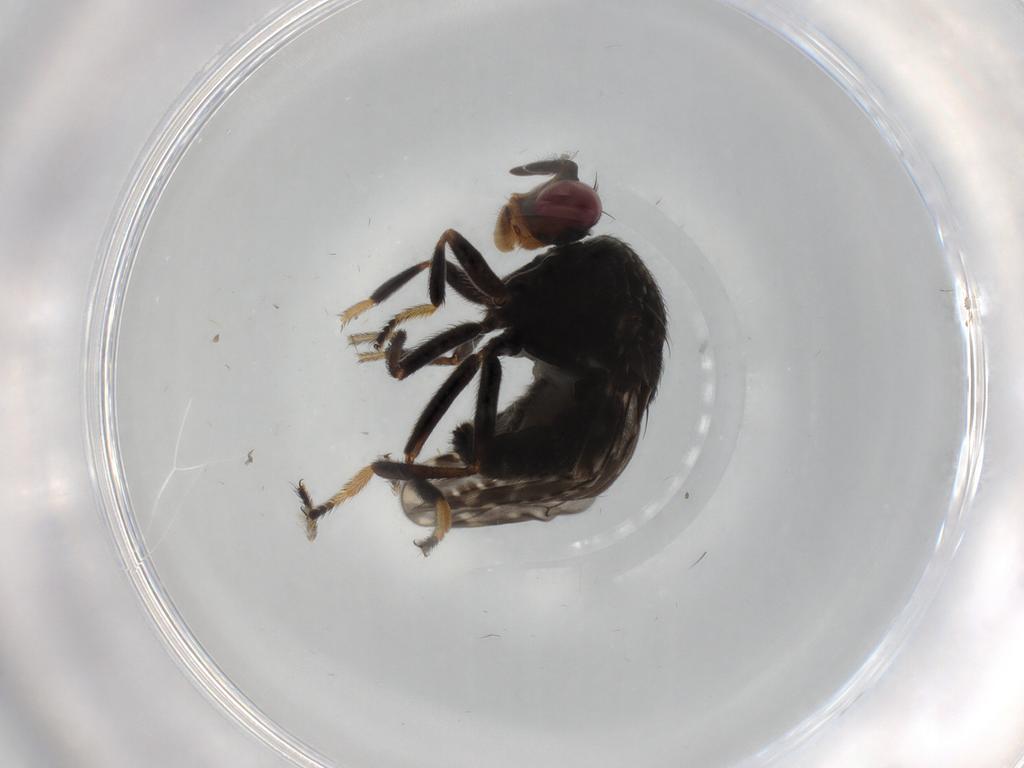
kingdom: Animalia
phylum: Arthropoda
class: Insecta
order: Diptera
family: Ephydridae
